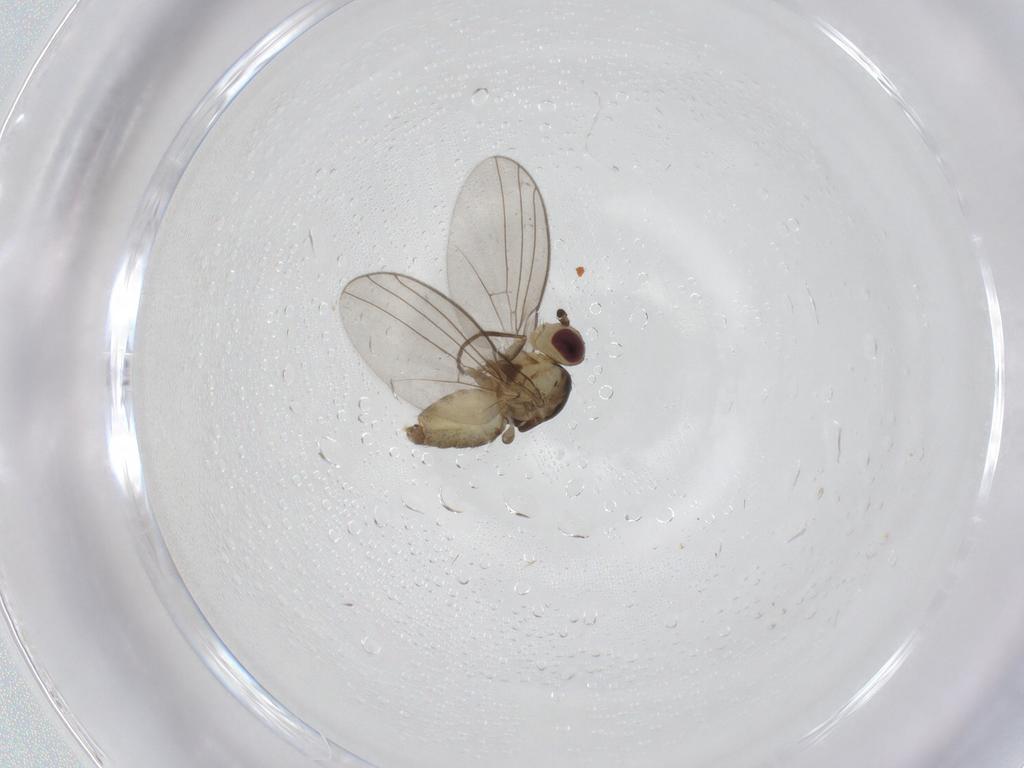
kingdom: Animalia
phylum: Arthropoda
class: Insecta
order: Diptera
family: Agromyzidae
